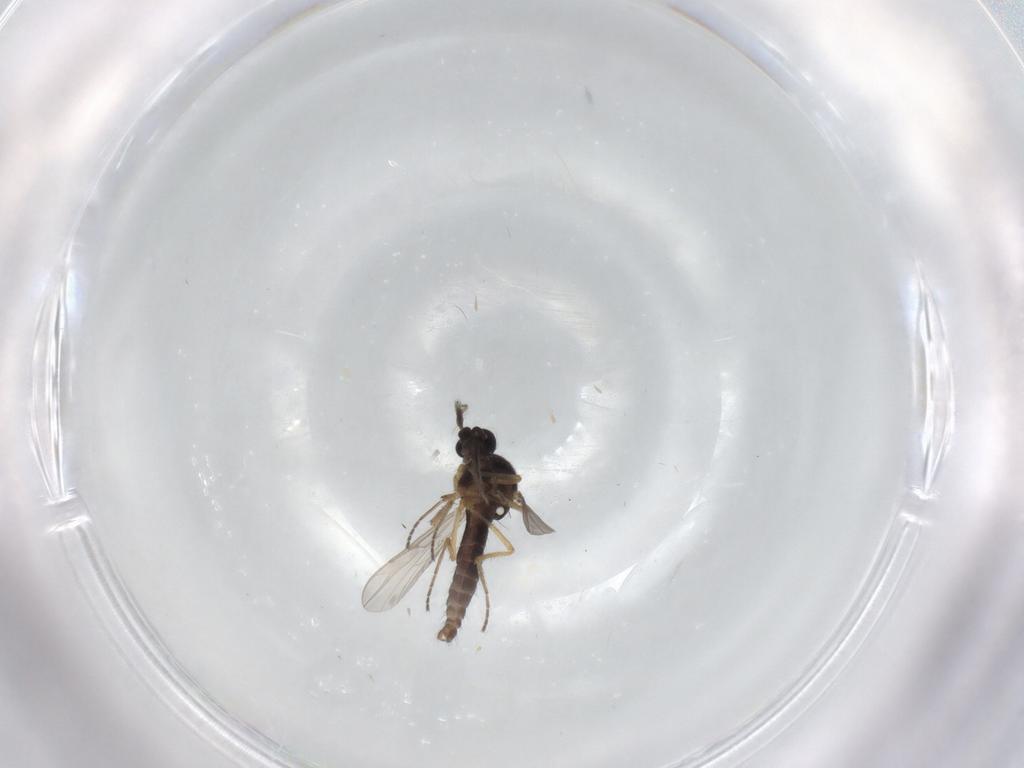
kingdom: Animalia
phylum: Arthropoda
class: Insecta
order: Diptera
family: Ceratopogonidae
